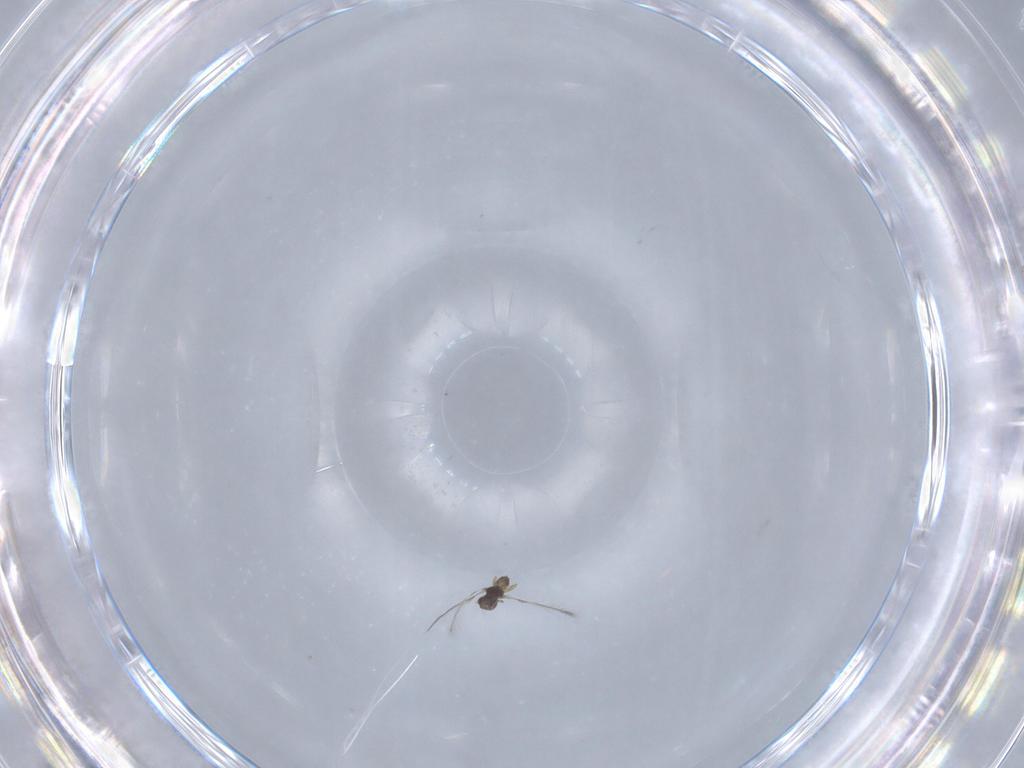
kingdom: Animalia
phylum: Arthropoda
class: Insecta
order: Hymenoptera
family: Mymaridae
